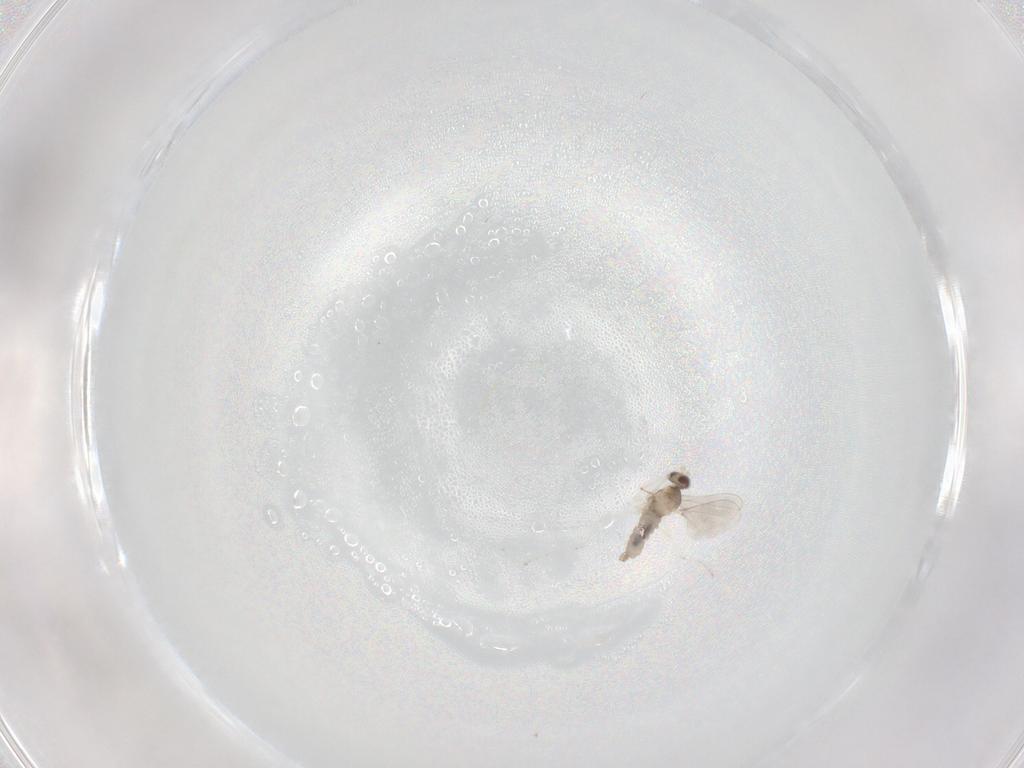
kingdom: Animalia
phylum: Arthropoda
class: Insecta
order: Diptera
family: Cecidomyiidae
